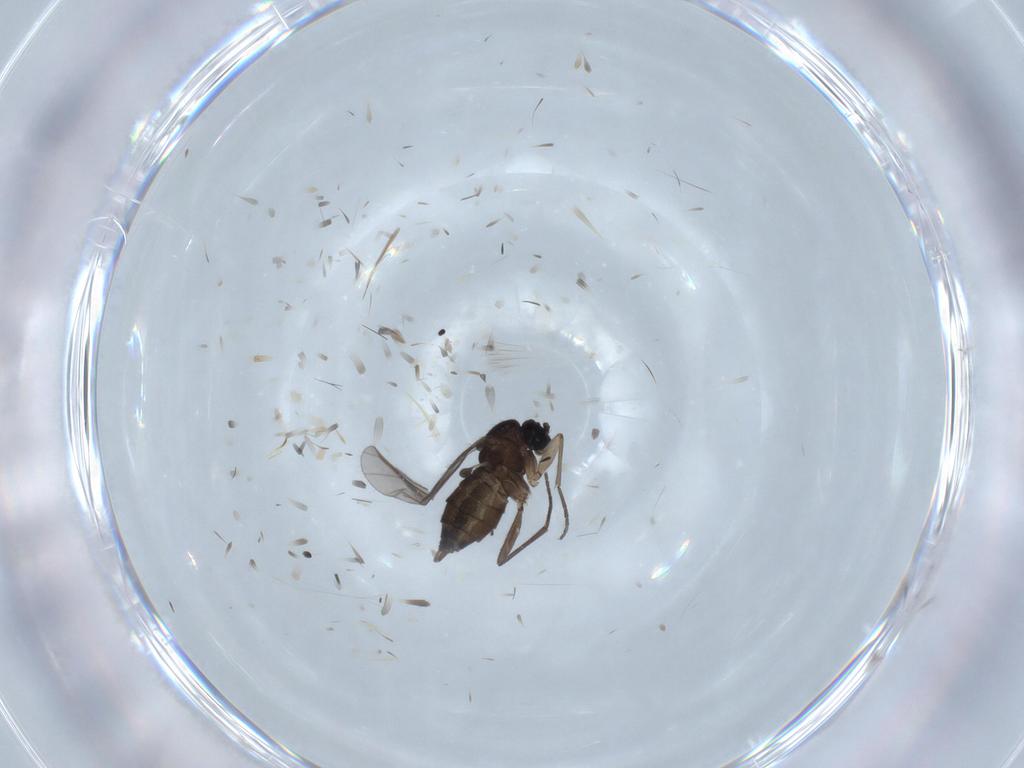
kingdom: Animalia
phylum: Arthropoda
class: Insecta
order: Diptera
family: Sciaridae
